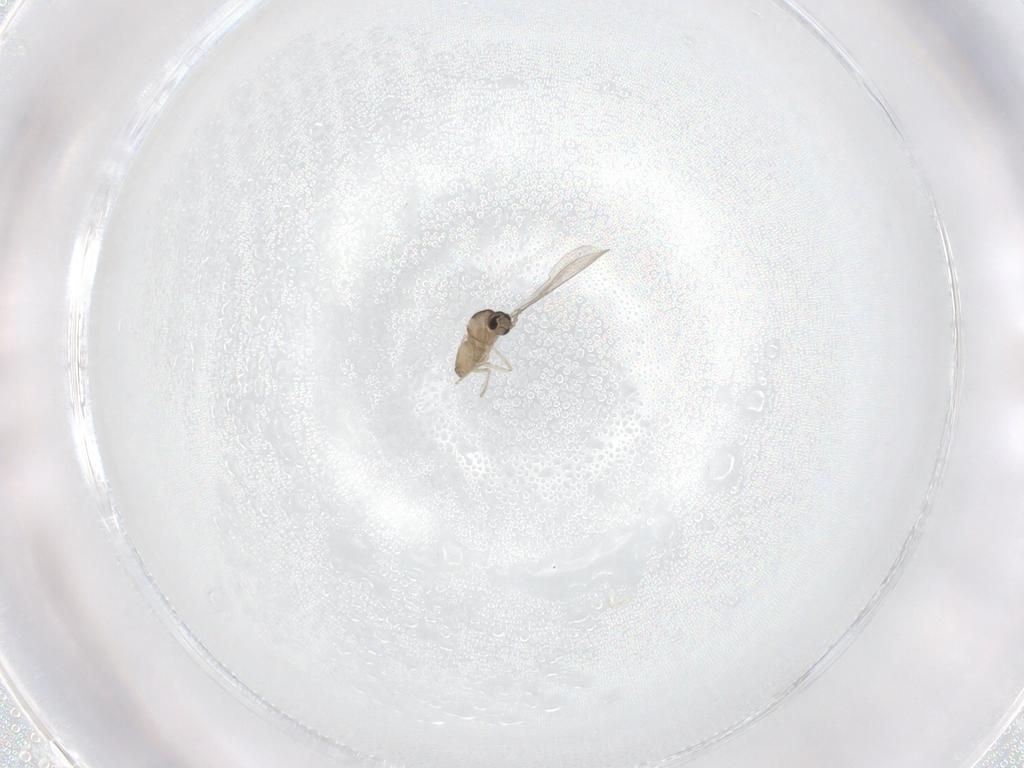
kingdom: Animalia
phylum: Arthropoda
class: Insecta
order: Diptera
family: Cecidomyiidae
